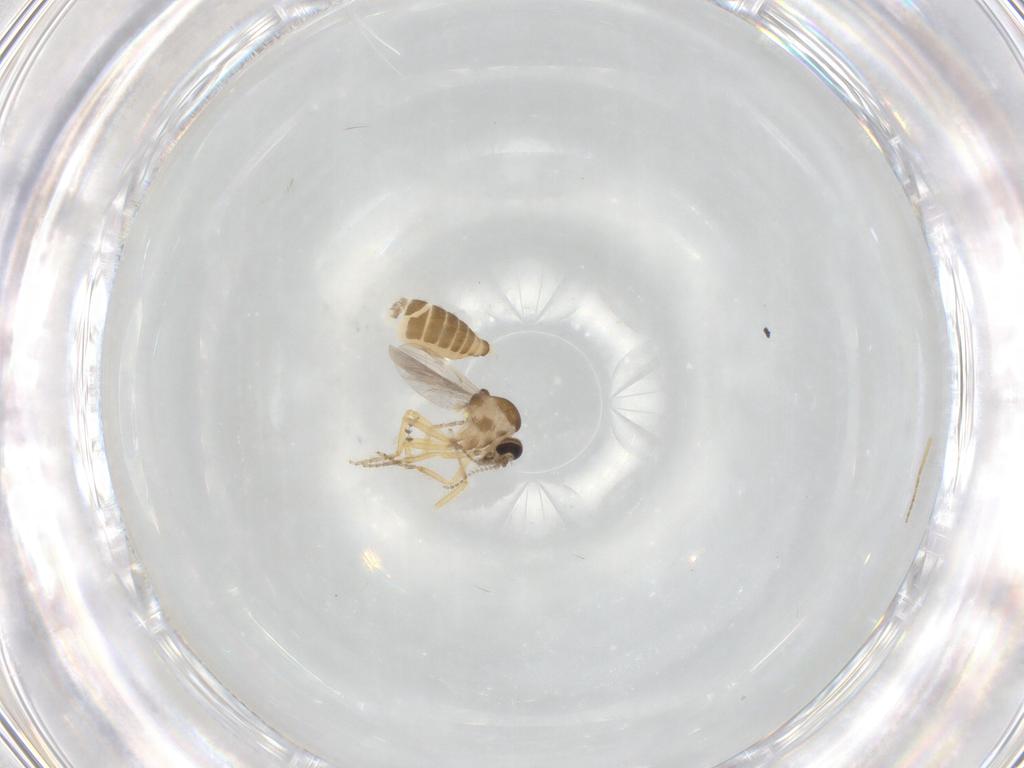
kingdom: Animalia
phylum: Arthropoda
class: Insecta
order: Diptera
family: Ceratopogonidae
